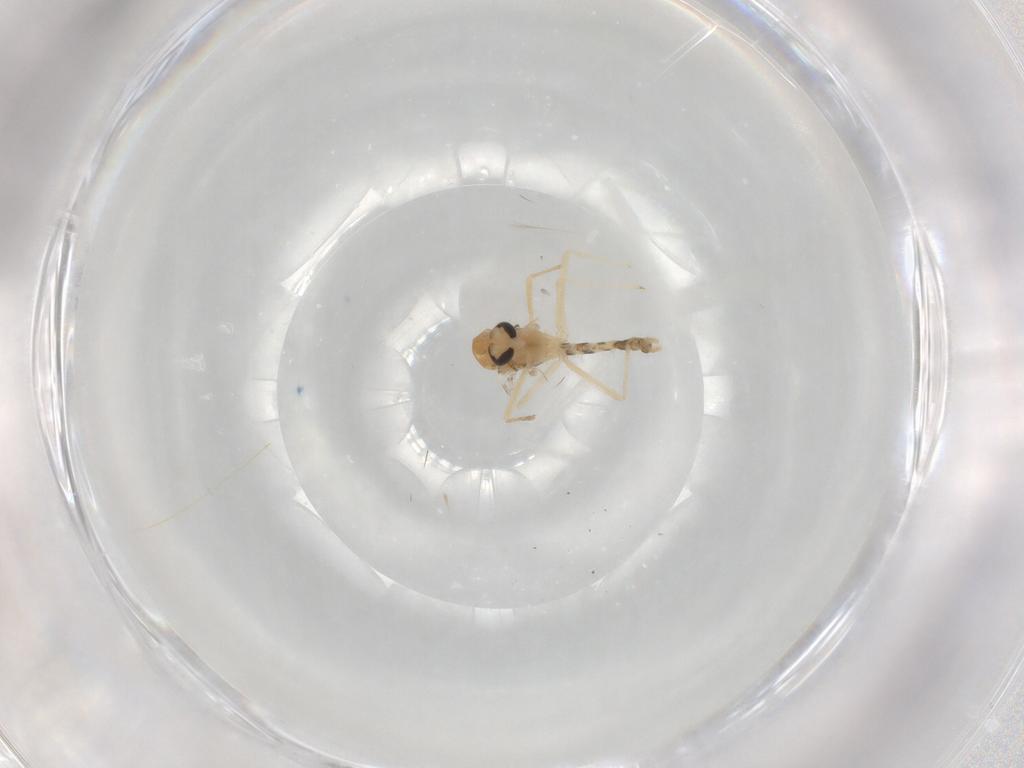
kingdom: Animalia
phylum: Arthropoda
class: Insecta
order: Diptera
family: Chironomidae
